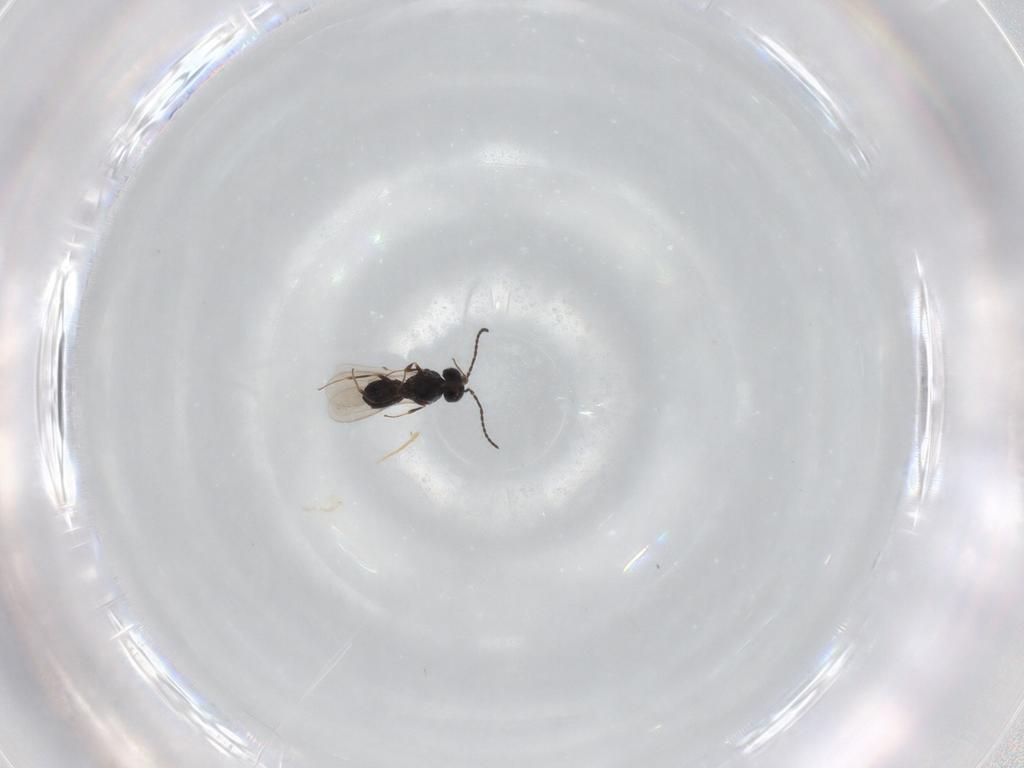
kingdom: Animalia
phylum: Arthropoda
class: Insecta
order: Hymenoptera
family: Scelionidae
